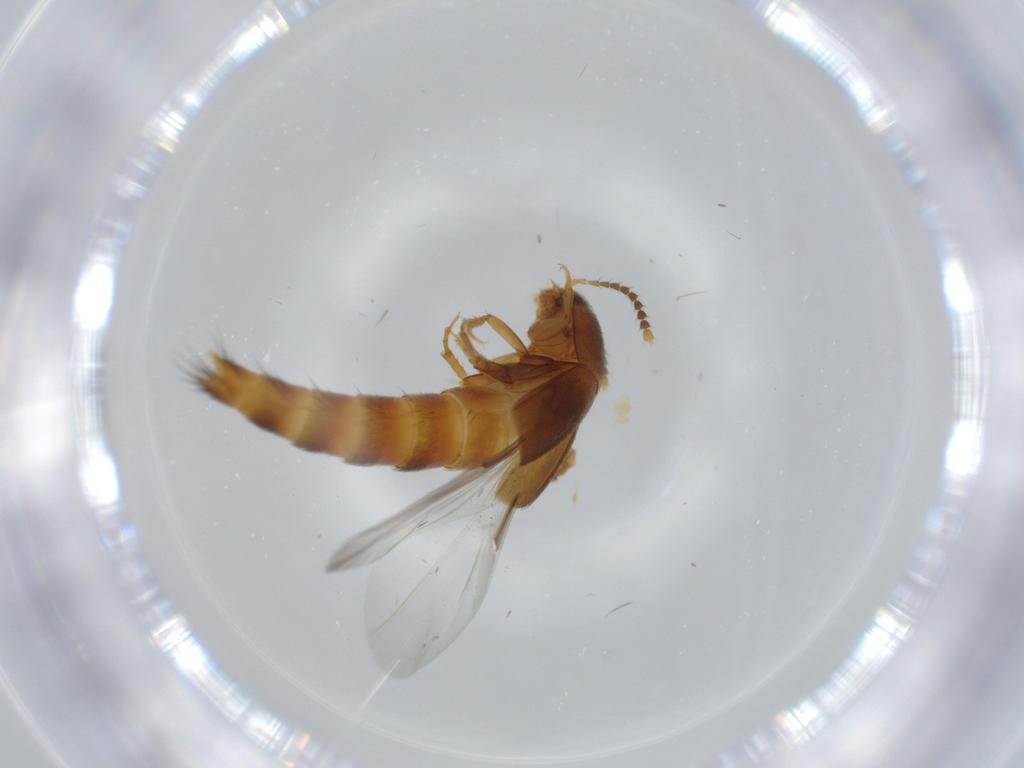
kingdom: Animalia
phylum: Arthropoda
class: Insecta
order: Coleoptera
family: Staphylinidae
